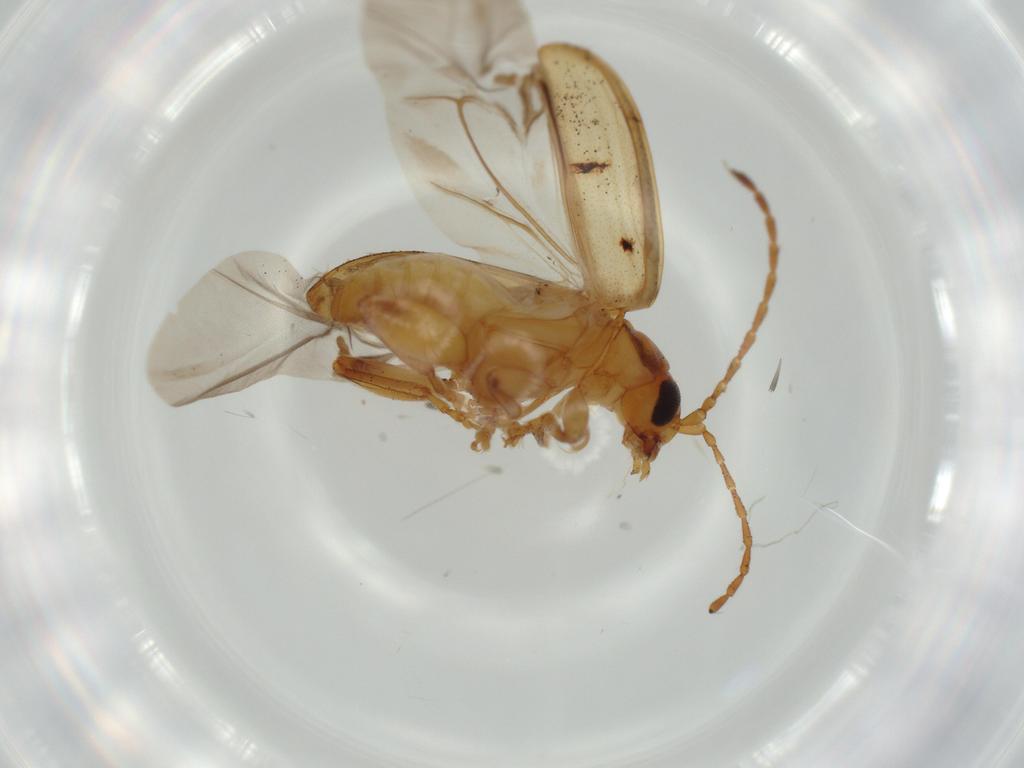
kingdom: Animalia
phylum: Arthropoda
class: Insecta
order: Coleoptera
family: Chrysomelidae
